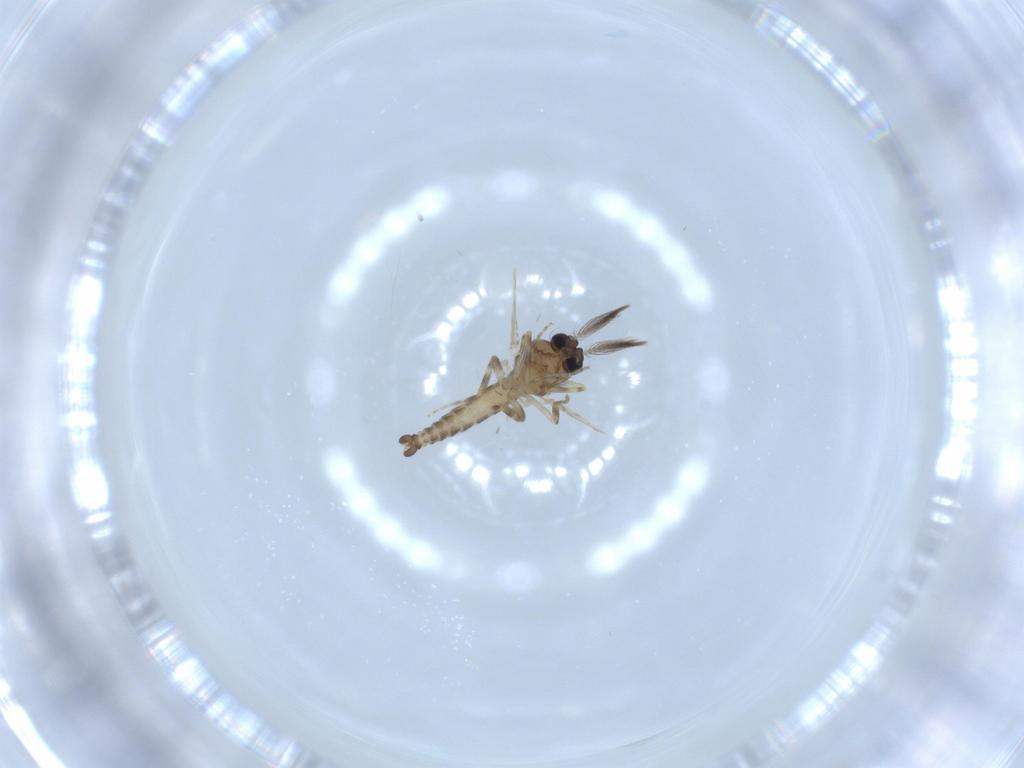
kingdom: Animalia
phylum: Arthropoda
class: Insecta
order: Diptera
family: Ceratopogonidae
